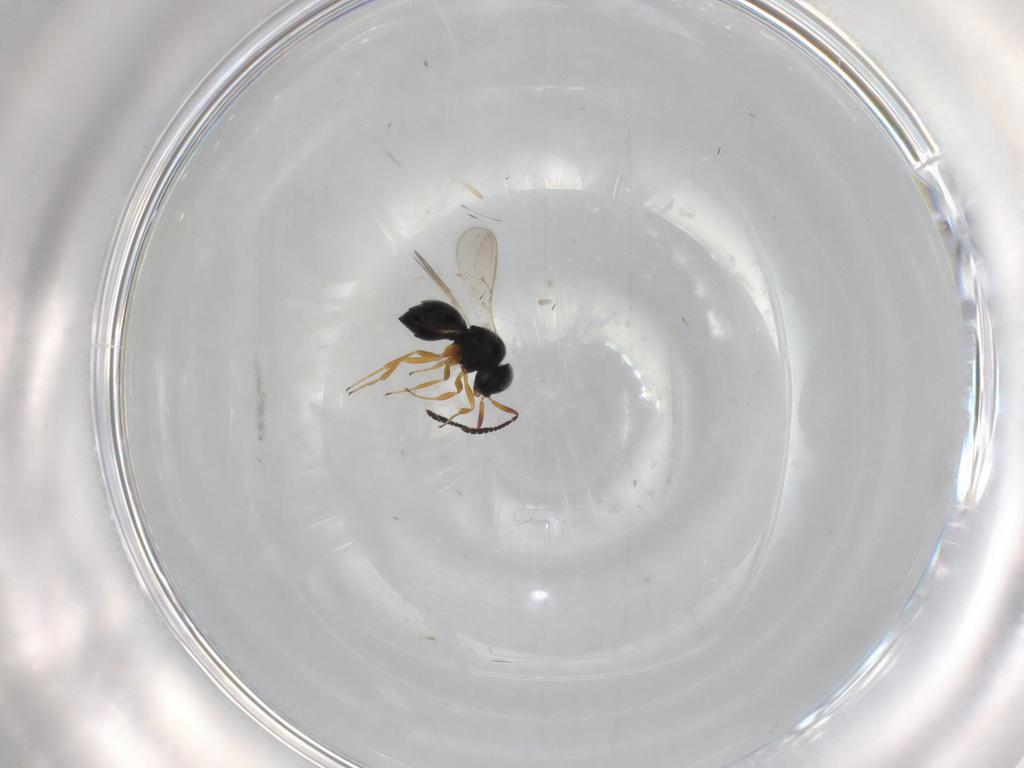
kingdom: Animalia
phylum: Arthropoda
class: Insecta
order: Hymenoptera
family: Scelionidae
